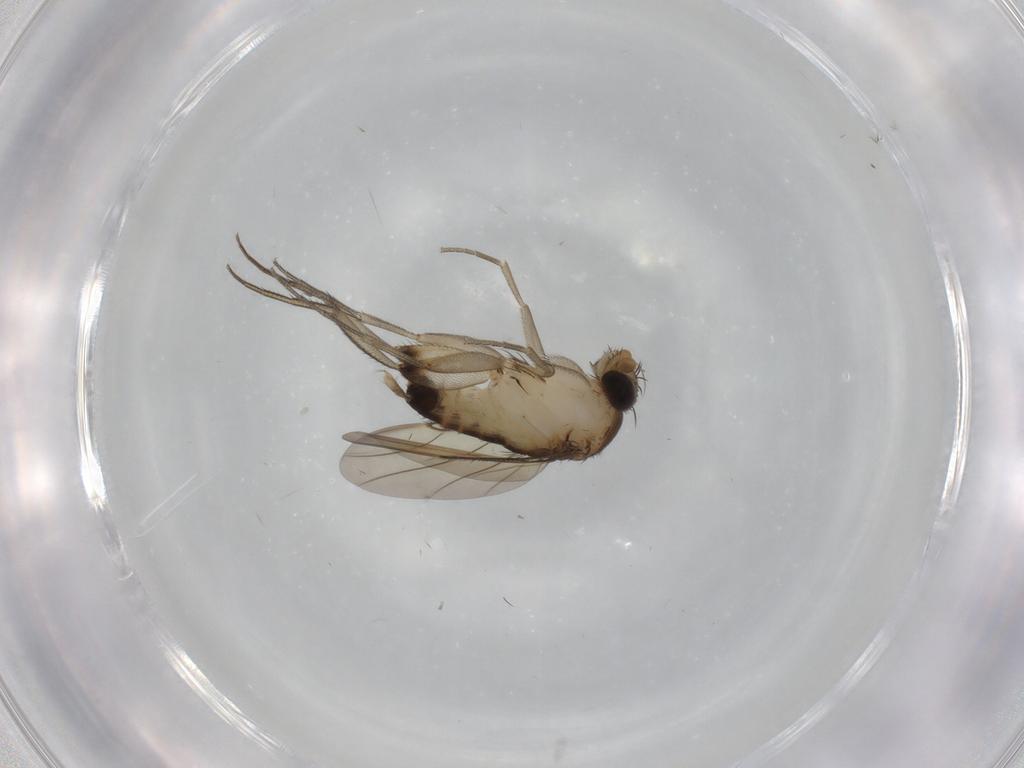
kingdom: Animalia
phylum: Arthropoda
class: Insecta
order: Diptera
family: Phoridae
